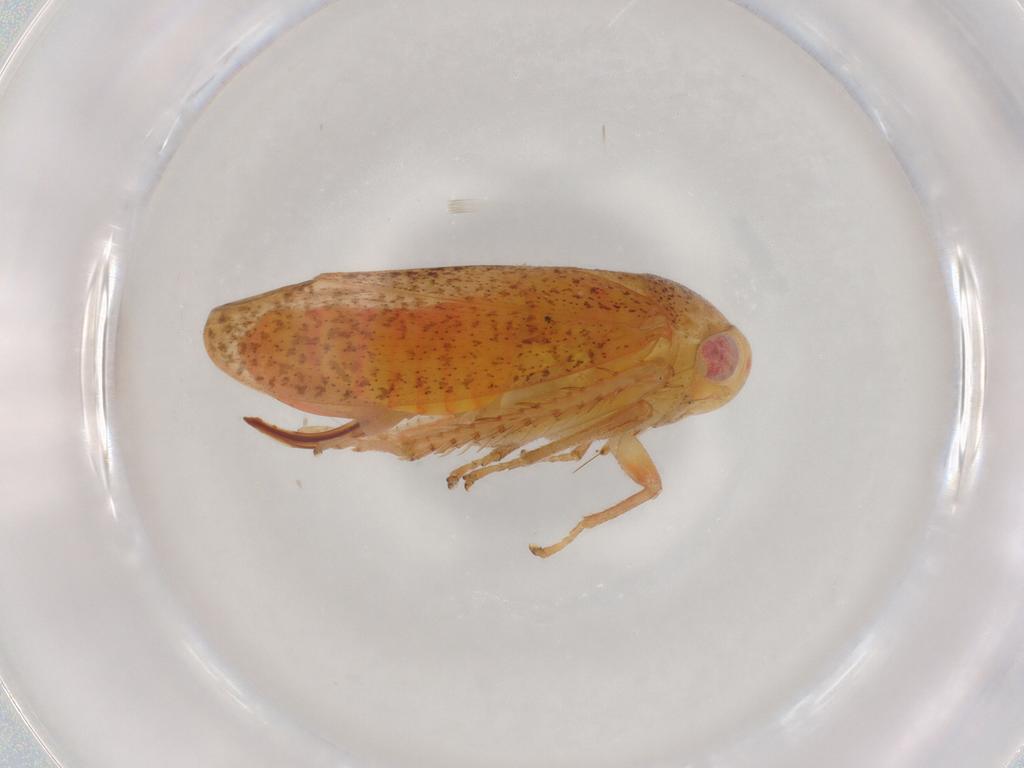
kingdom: Animalia
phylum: Arthropoda
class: Insecta
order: Hemiptera
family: Cicadellidae
